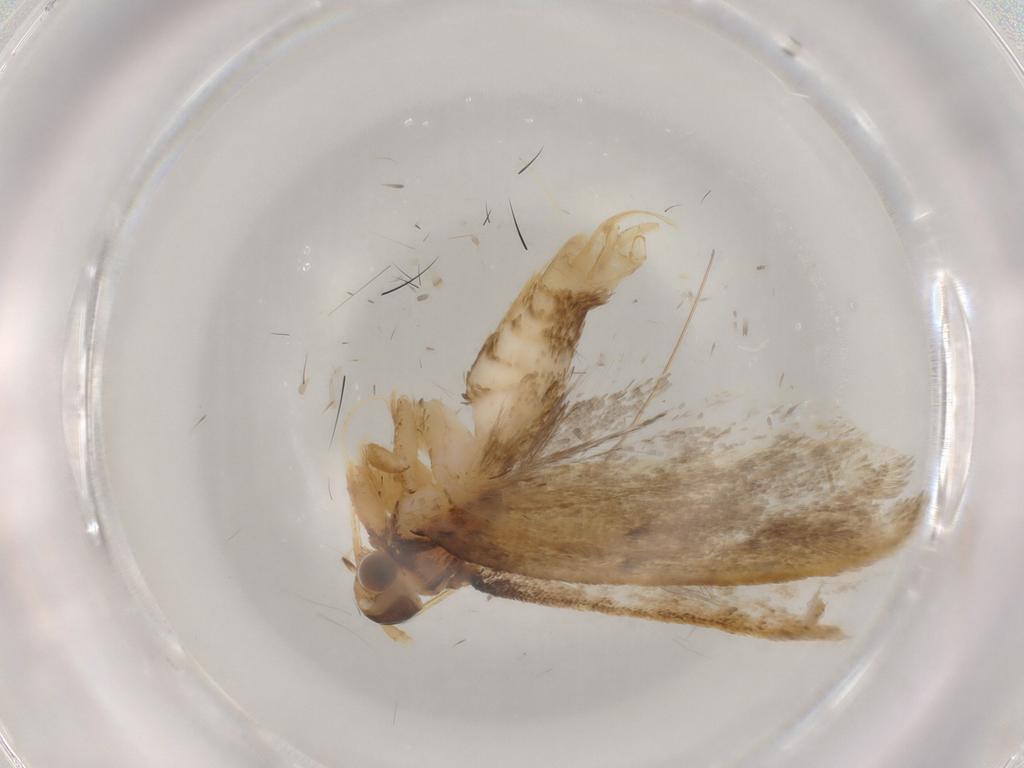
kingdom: Animalia
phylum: Arthropoda
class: Insecta
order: Lepidoptera
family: Lecithoceridae
